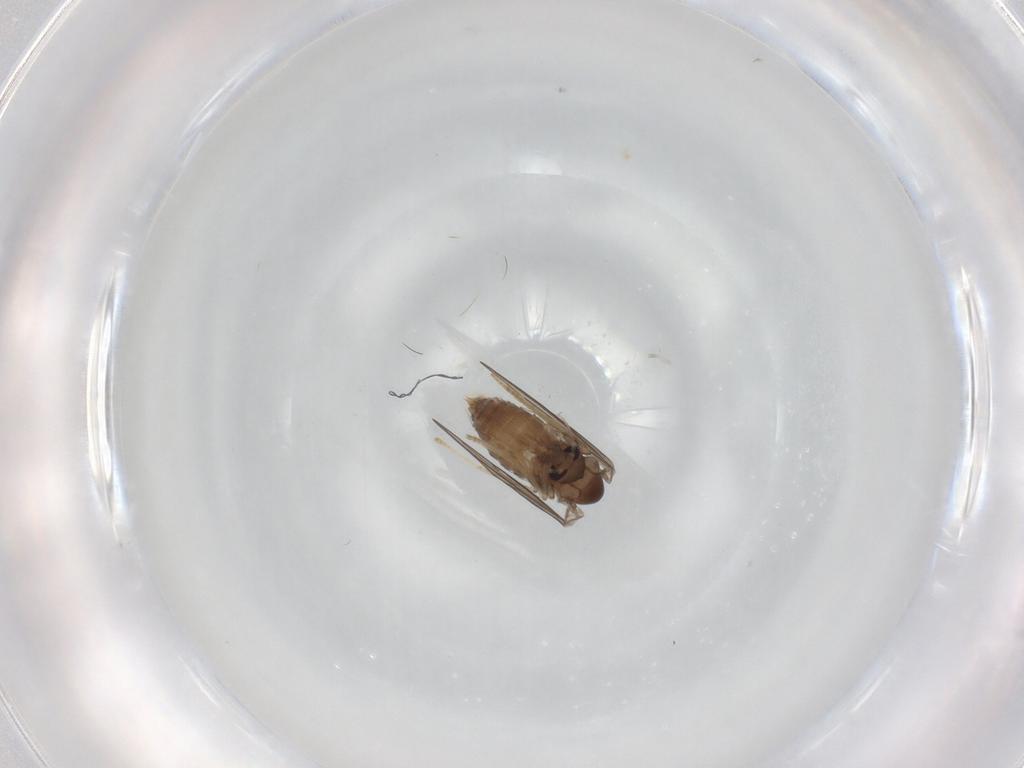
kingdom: Animalia
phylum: Arthropoda
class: Insecta
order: Diptera
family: Psychodidae
